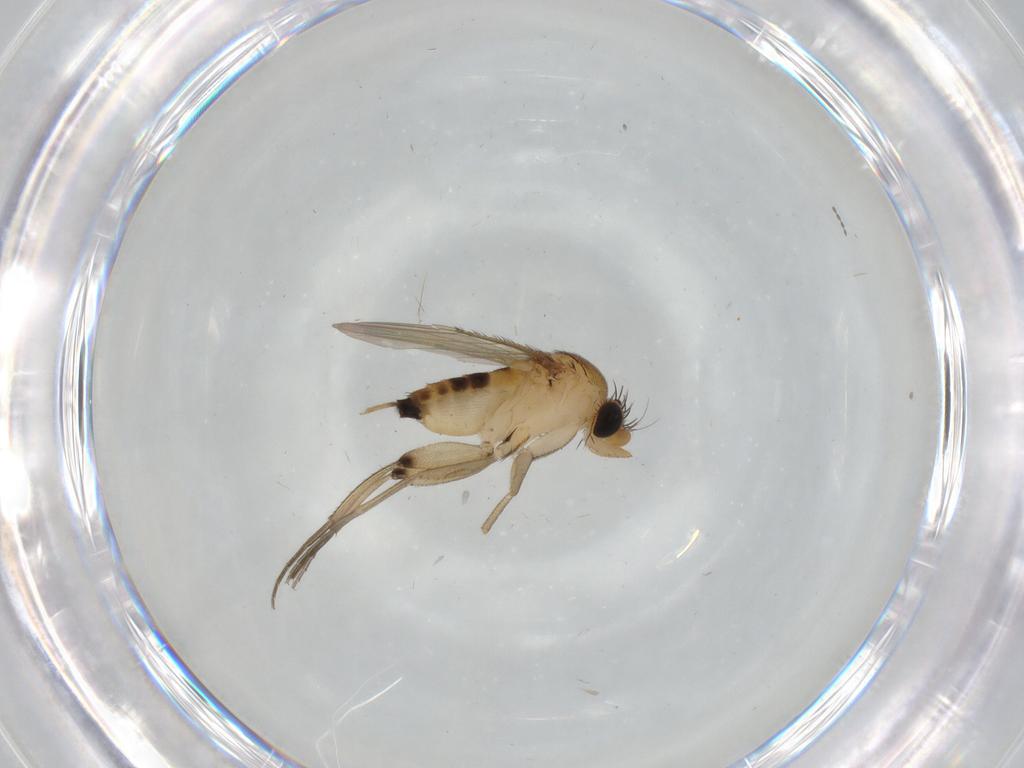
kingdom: Animalia
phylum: Arthropoda
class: Insecta
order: Diptera
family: Phoridae
